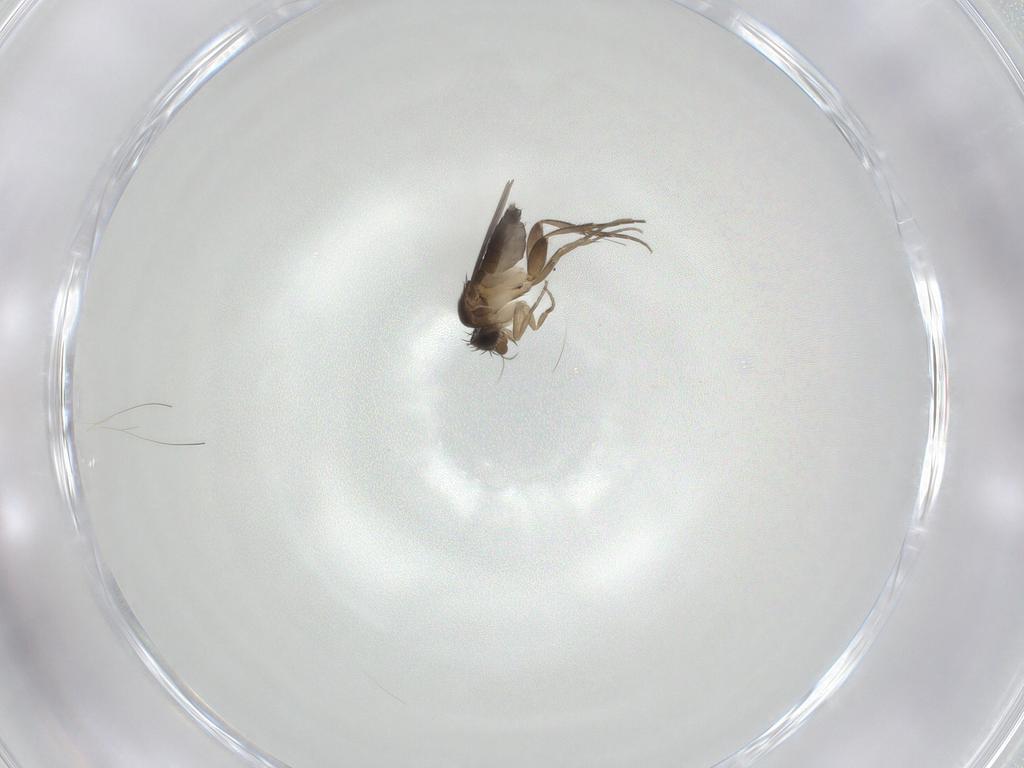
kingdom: Animalia
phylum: Arthropoda
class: Insecta
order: Diptera
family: Phoridae
